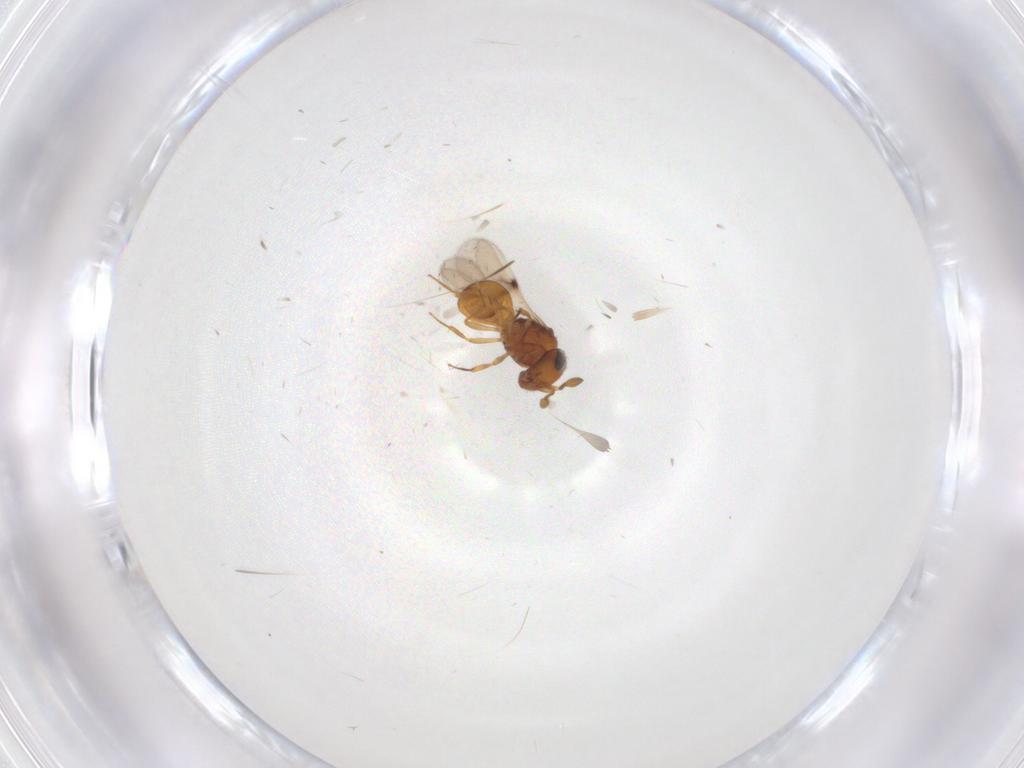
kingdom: Animalia
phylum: Arthropoda
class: Insecta
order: Hymenoptera
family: Scelionidae
